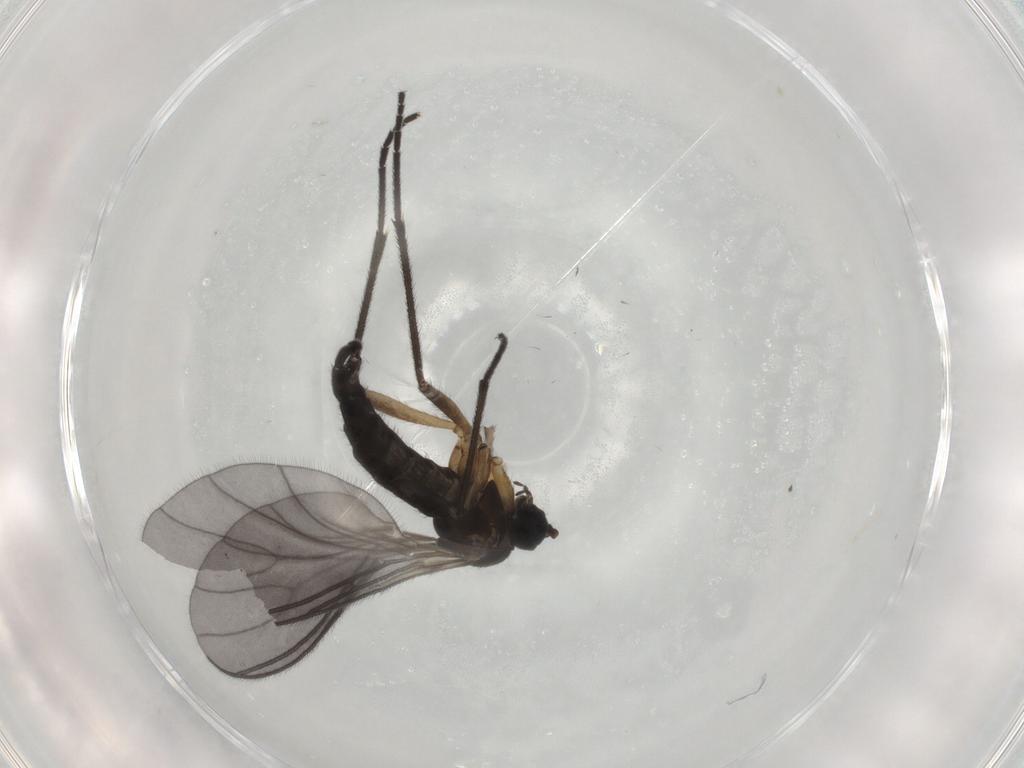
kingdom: Animalia
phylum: Arthropoda
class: Insecta
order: Diptera
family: Sciaridae
